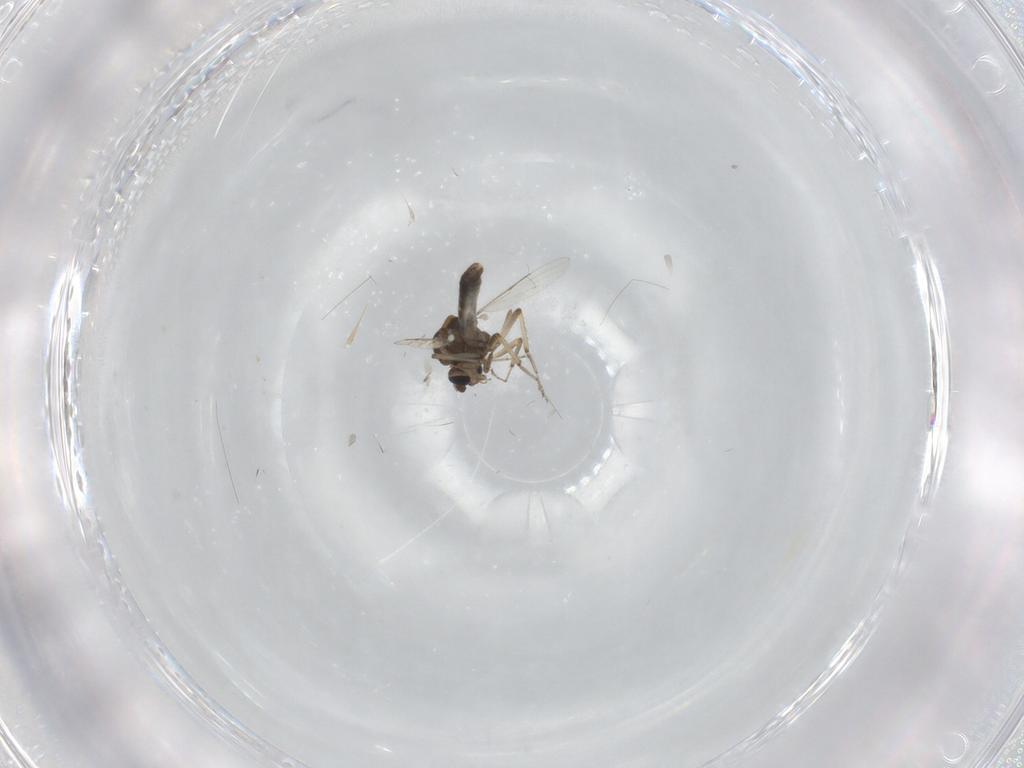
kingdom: Animalia
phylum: Arthropoda
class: Insecta
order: Diptera
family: Ceratopogonidae
